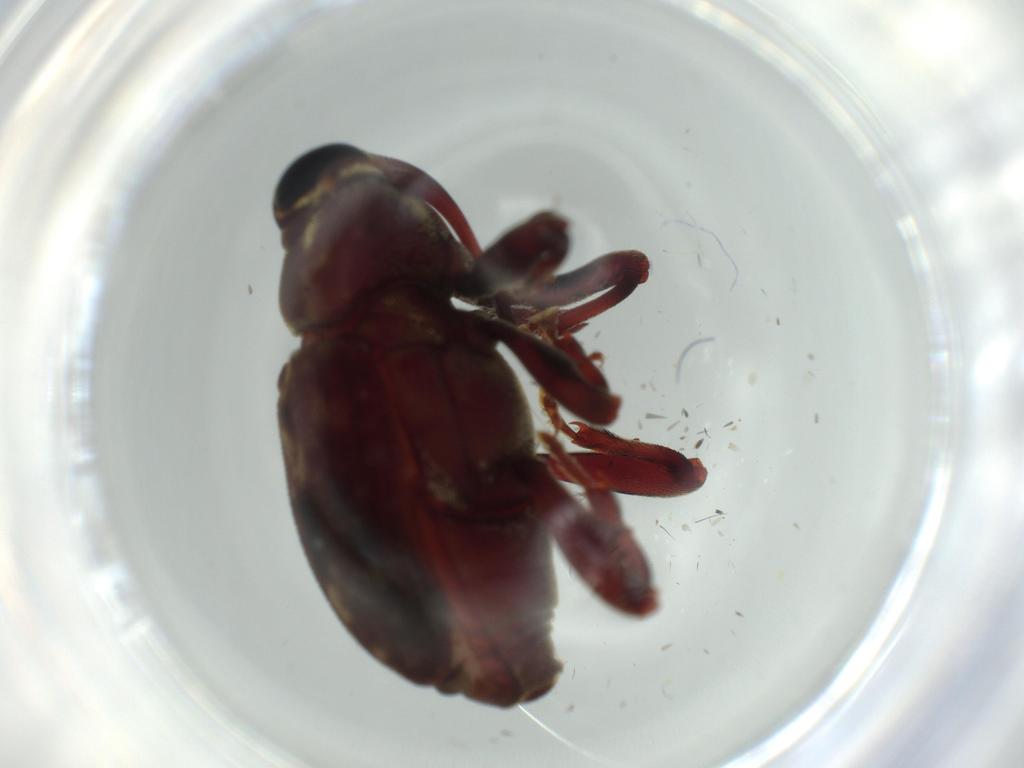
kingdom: Animalia
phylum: Arthropoda
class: Insecta
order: Coleoptera
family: Curculionidae
